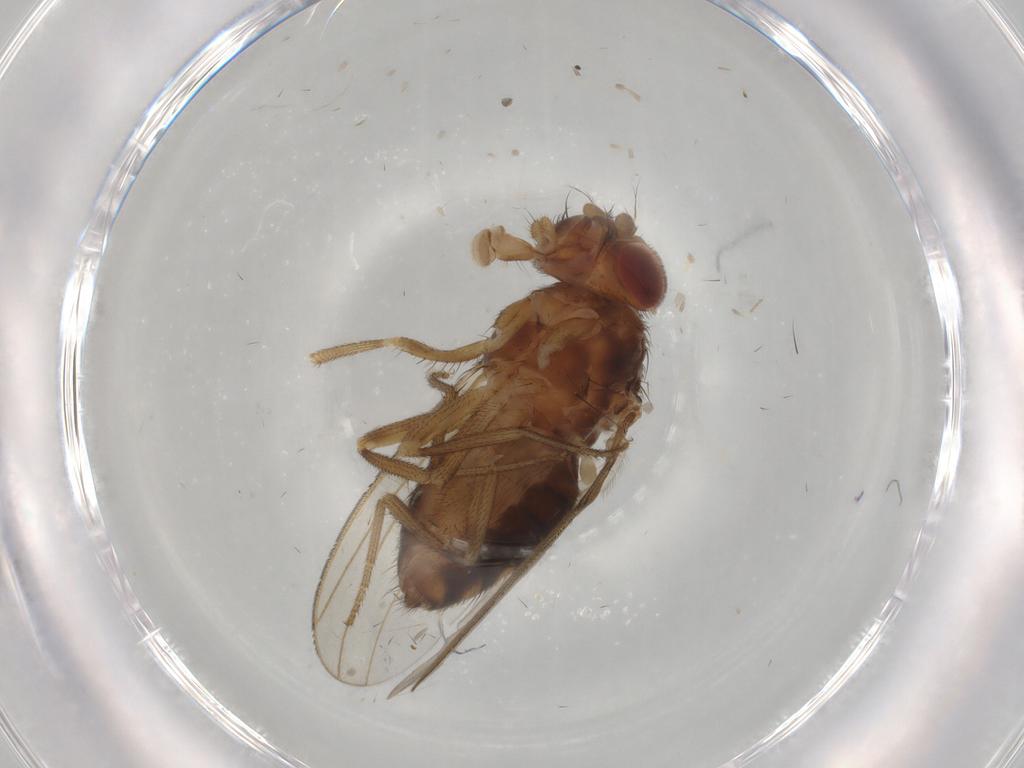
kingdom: Animalia
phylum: Arthropoda
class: Insecta
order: Diptera
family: Drosophilidae
